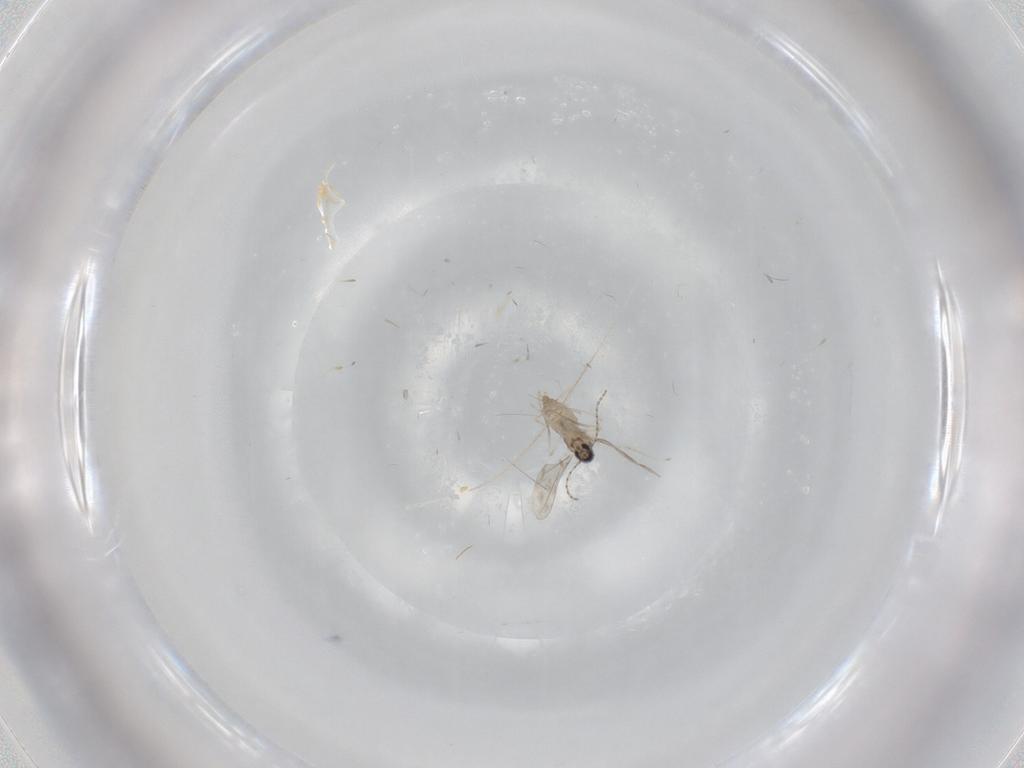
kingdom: Animalia
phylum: Arthropoda
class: Insecta
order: Diptera
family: Cecidomyiidae
